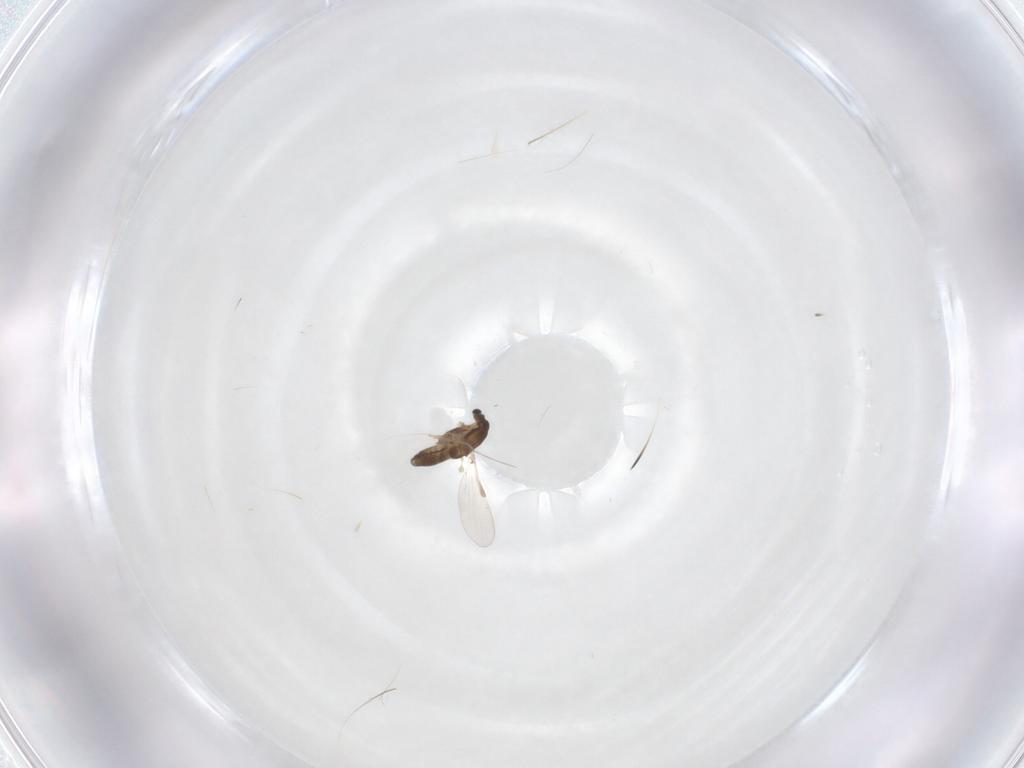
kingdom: Animalia
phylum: Arthropoda
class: Insecta
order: Diptera
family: Chironomidae
